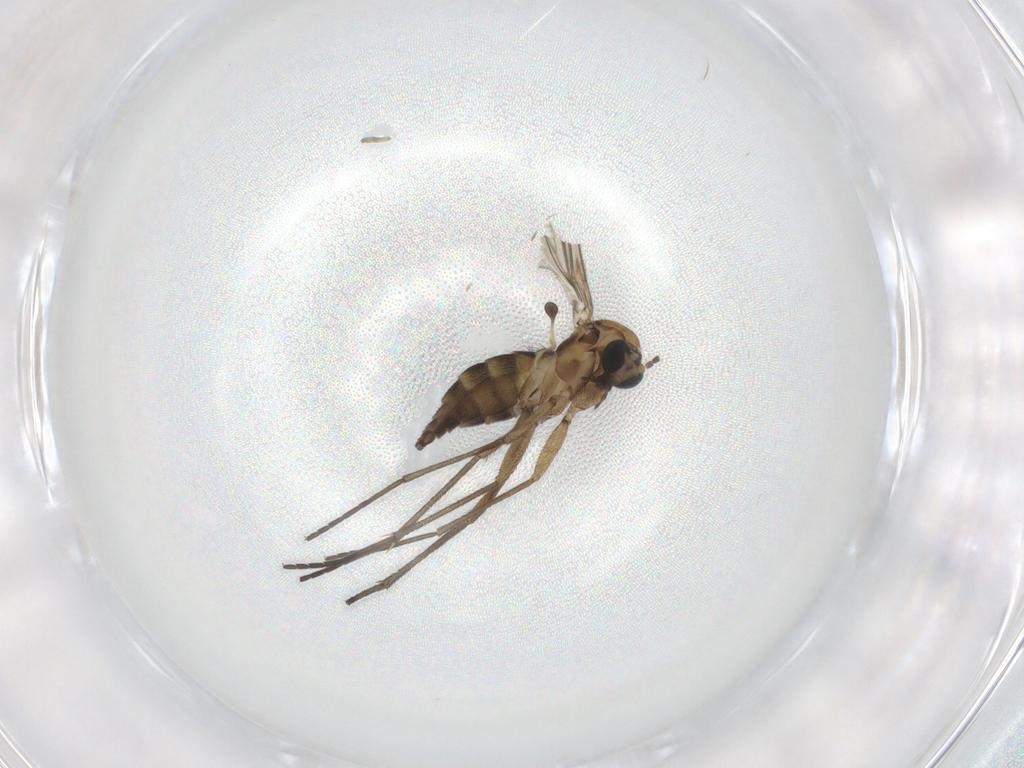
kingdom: Animalia
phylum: Arthropoda
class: Insecta
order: Diptera
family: Sciaridae
